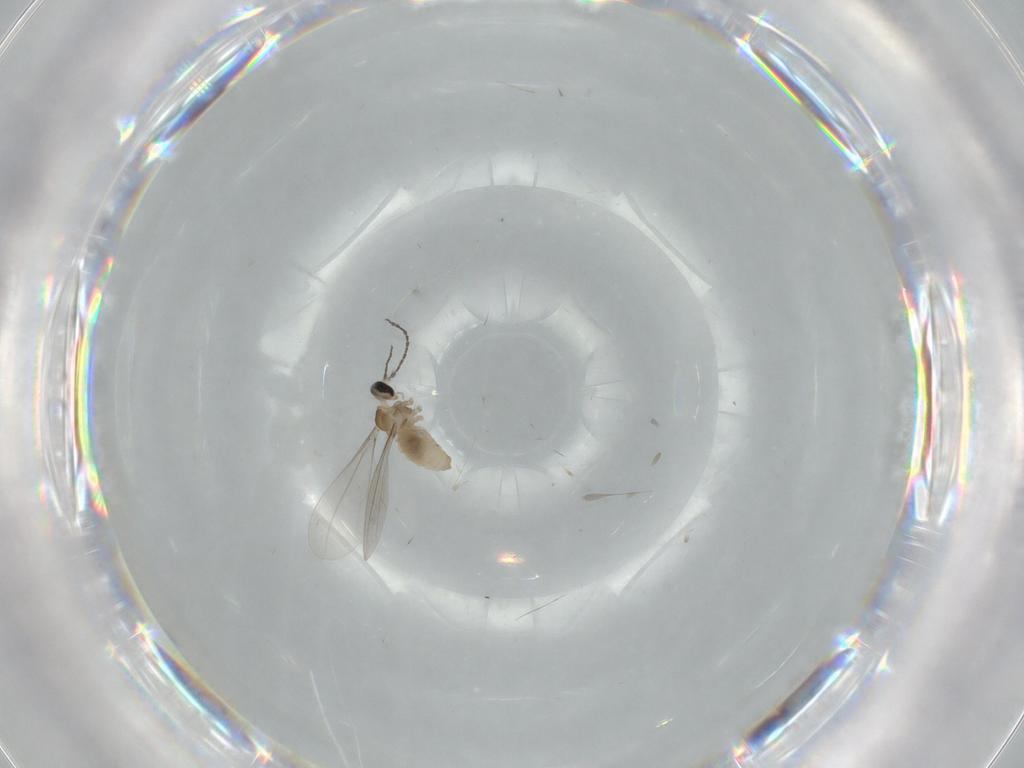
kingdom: Animalia
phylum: Arthropoda
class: Insecta
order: Diptera
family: Cecidomyiidae
